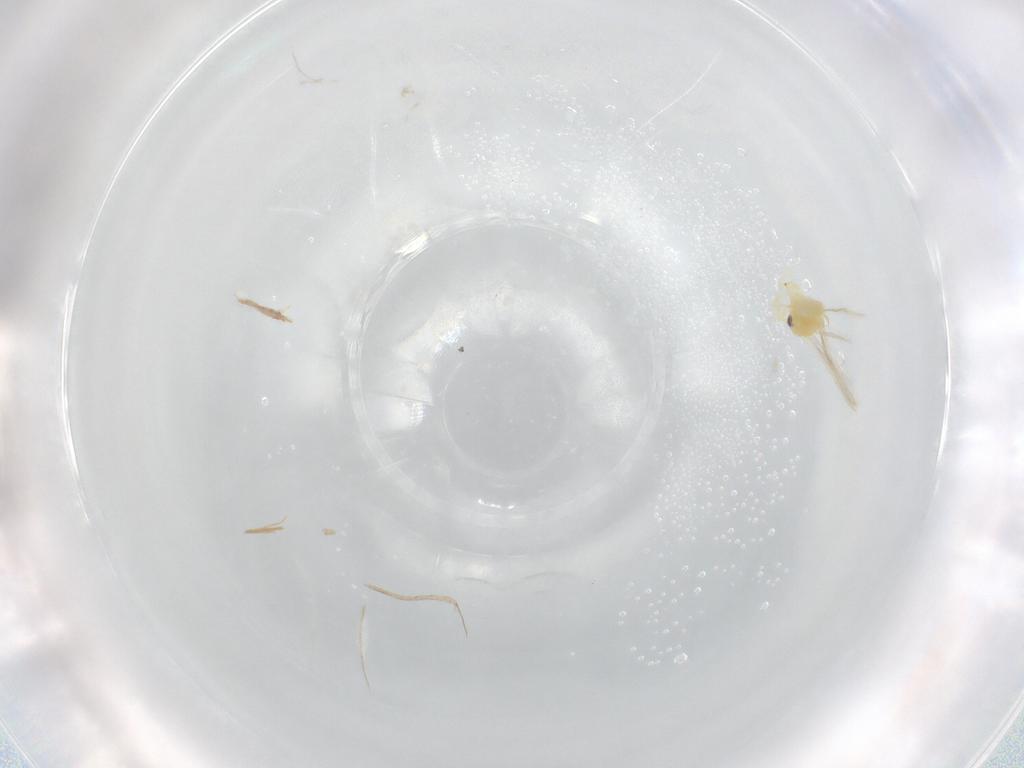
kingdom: Animalia
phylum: Arthropoda
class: Insecta
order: Hemiptera
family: Aleyrodidae
